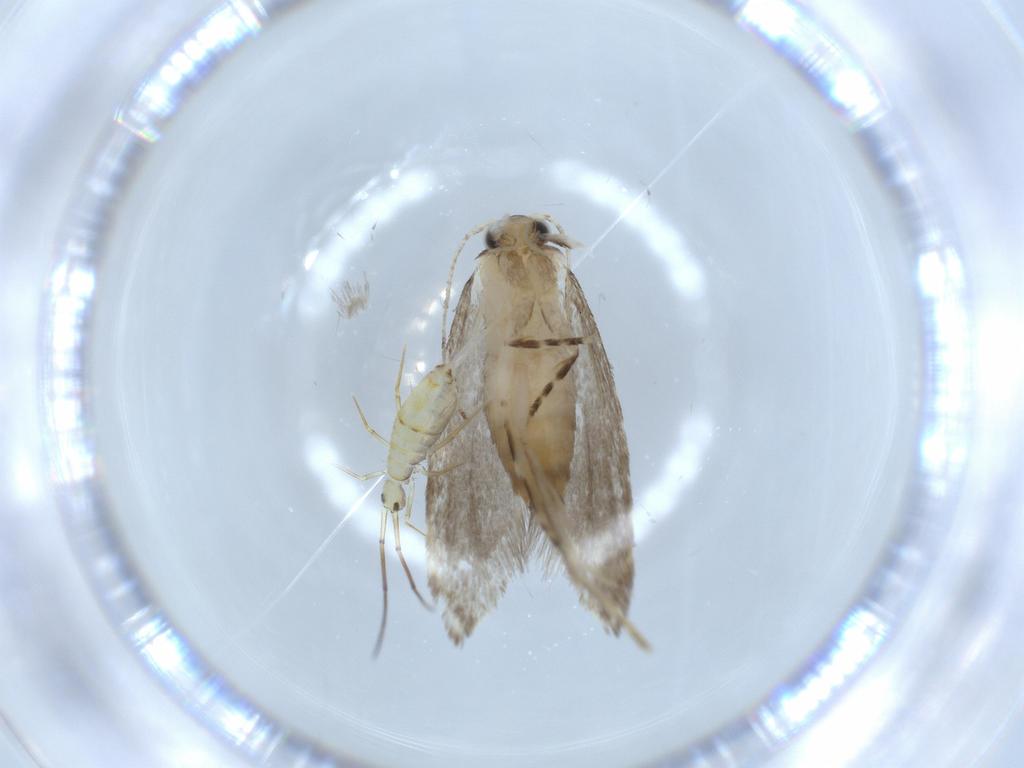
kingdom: Animalia
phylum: Arthropoda
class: Insecta
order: Lepidoptera
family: Tineidae
